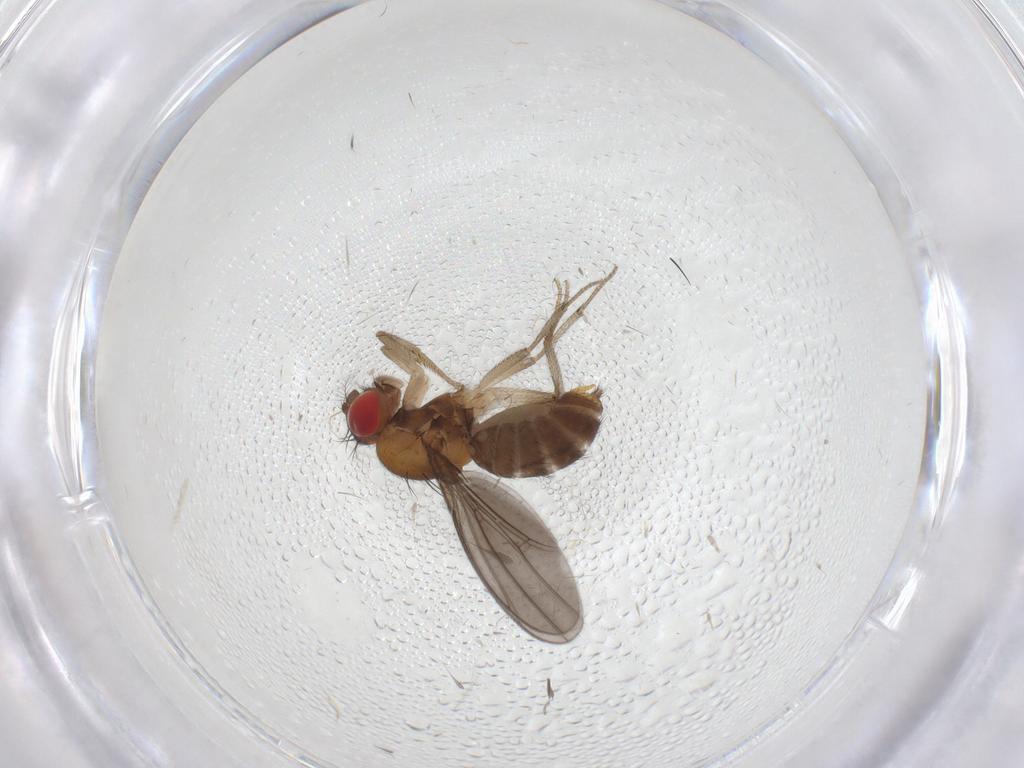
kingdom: Animalia
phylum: Arthropoda
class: Insecta
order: Diptera
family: Drosophilidae
